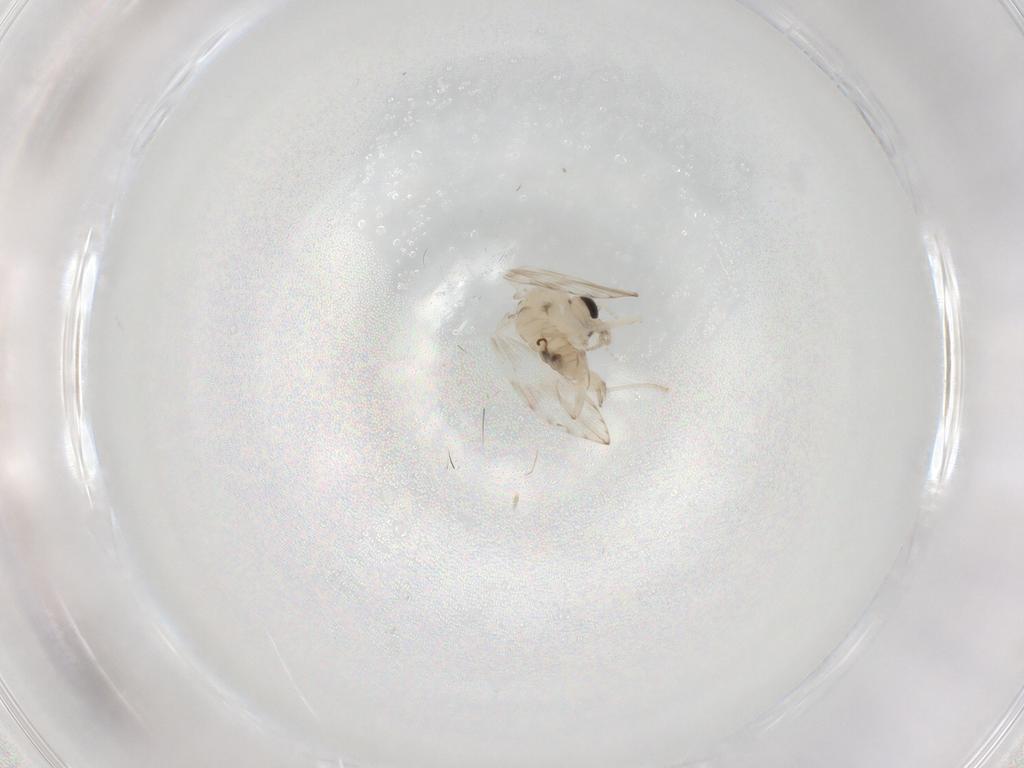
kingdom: Animalia
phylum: Arthropoda
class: Insecta
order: Diptera
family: Psychodidae
